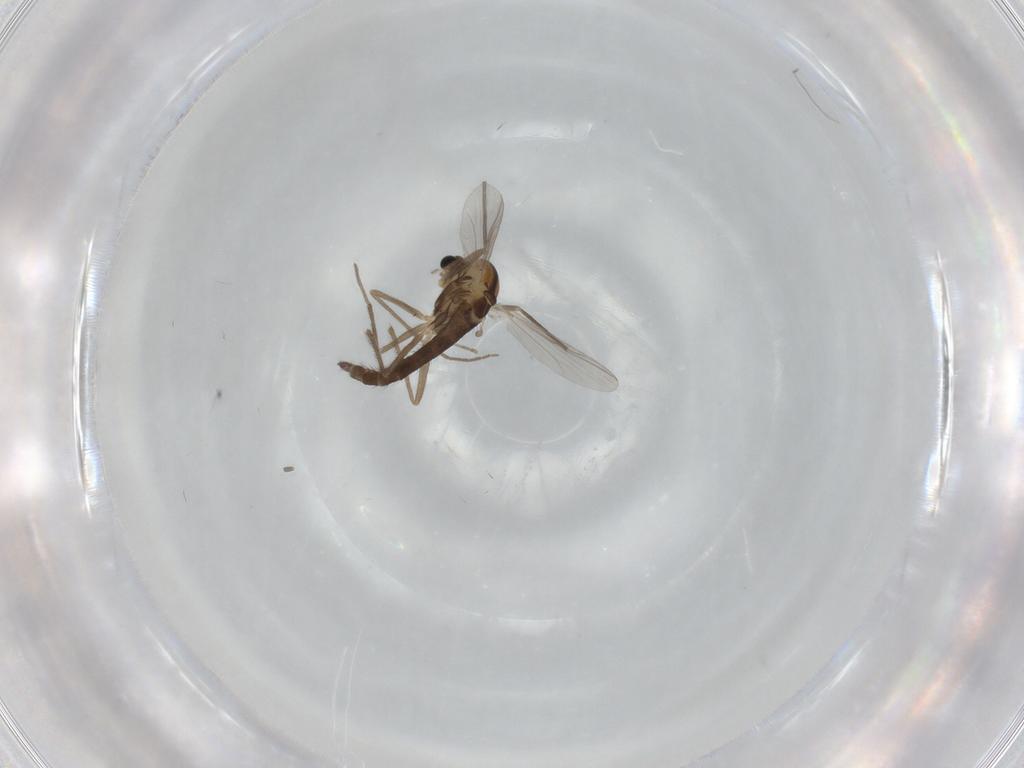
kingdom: Animalia
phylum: Arthropoda
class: Insecta
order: Diptera
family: Chironomidae
